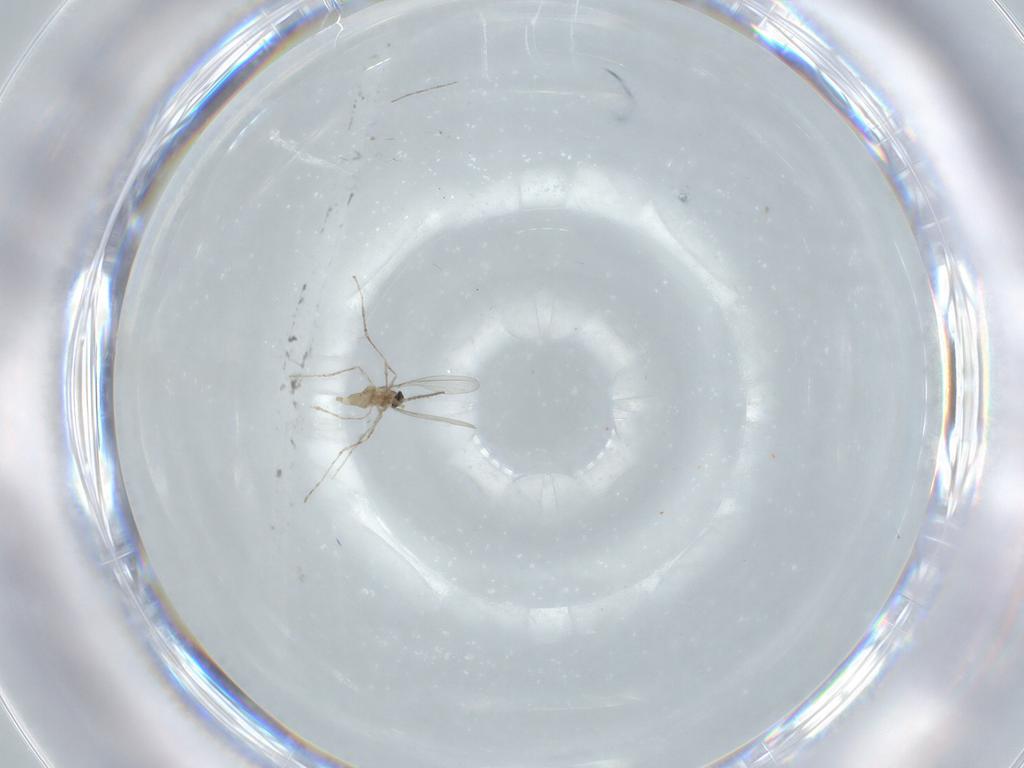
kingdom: Animalia
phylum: Arthropoda
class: Insecta
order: Diptera
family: Cecidomyiidae
